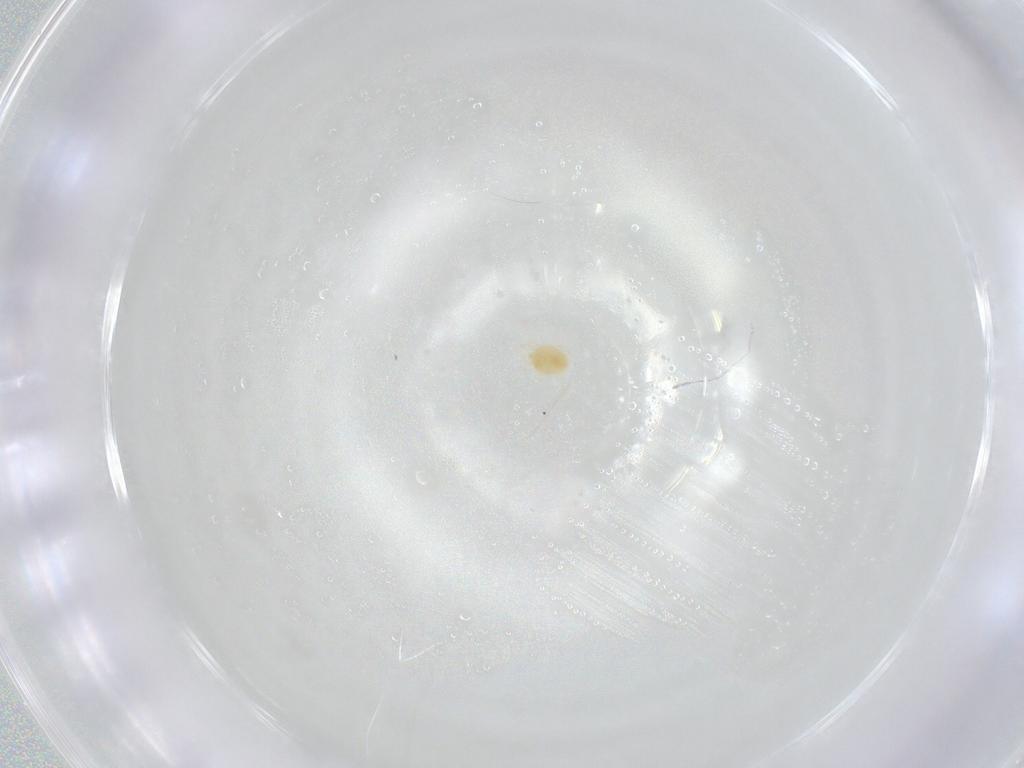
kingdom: Animalia
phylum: Arthropoda
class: Arachnida
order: Trombidiformes
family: Tetranychidae
